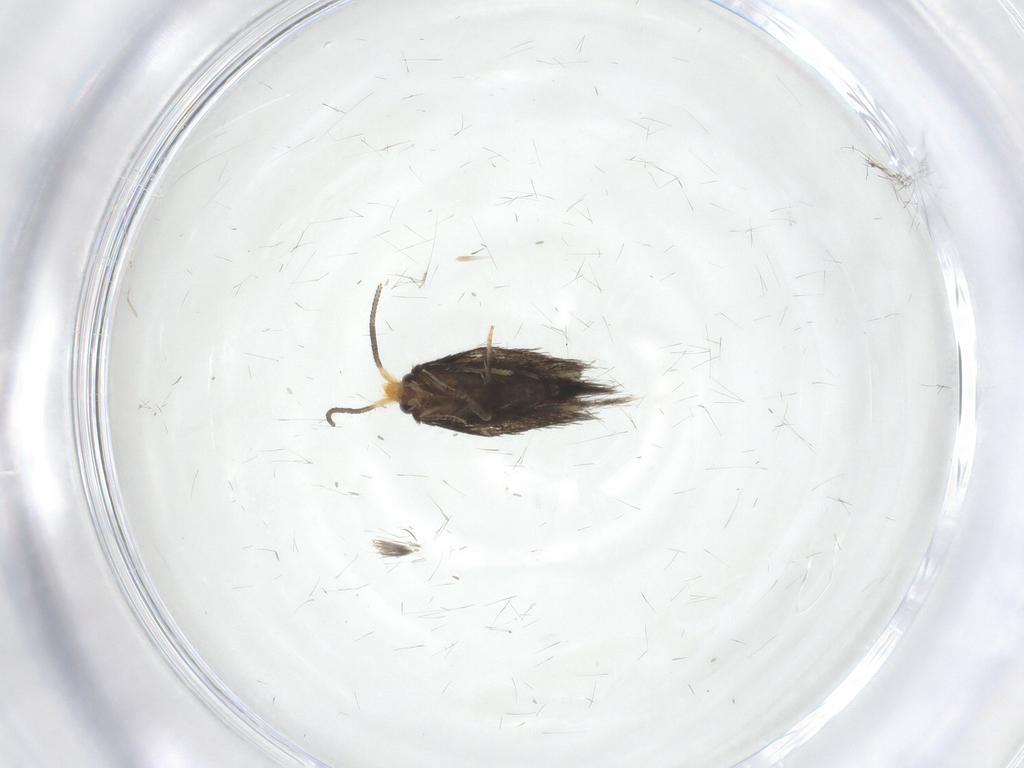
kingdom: Animalia
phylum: Arthropoda
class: Insecta
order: Lepidoptera
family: Nepticulidae
